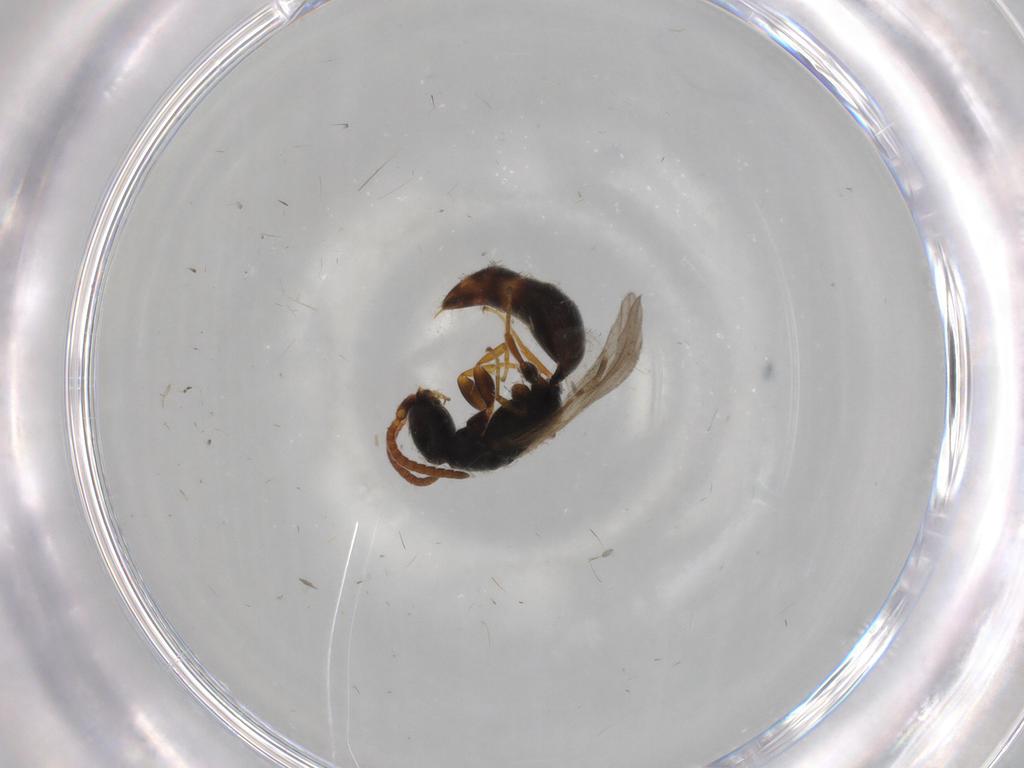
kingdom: Animalia
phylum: Arthropoda
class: Insecta
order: Hymenoptera
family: Bethylidae
